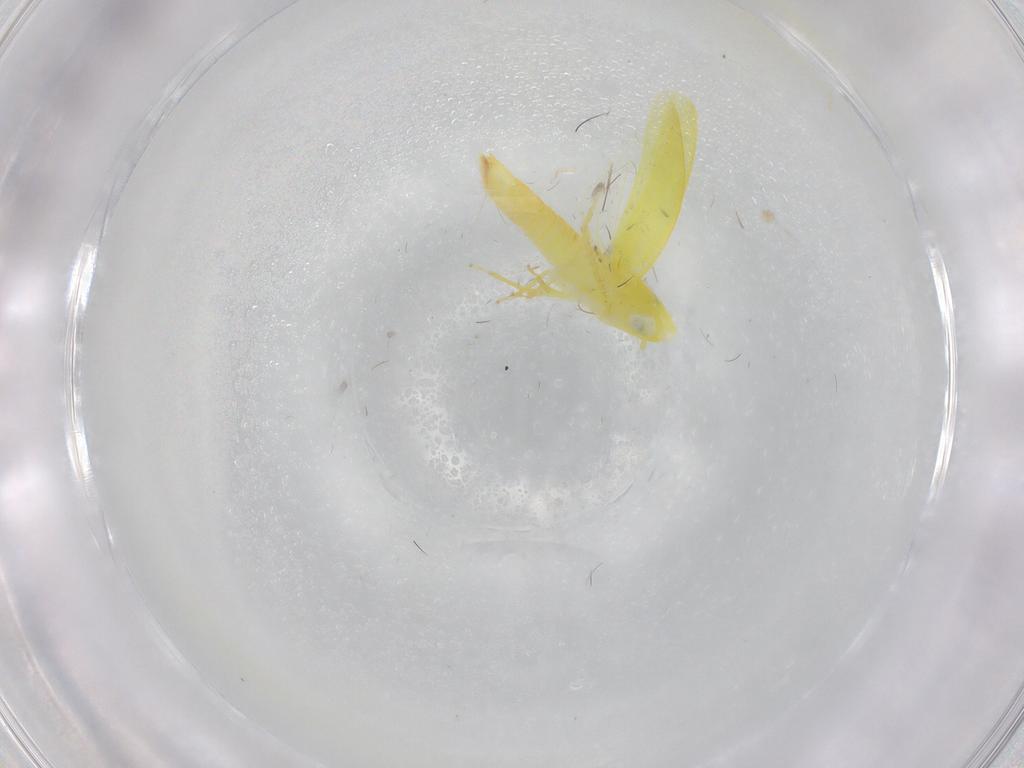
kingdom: Animalia
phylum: Arthropoda
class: Insecta
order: Hemiptera
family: Cicadellidae
